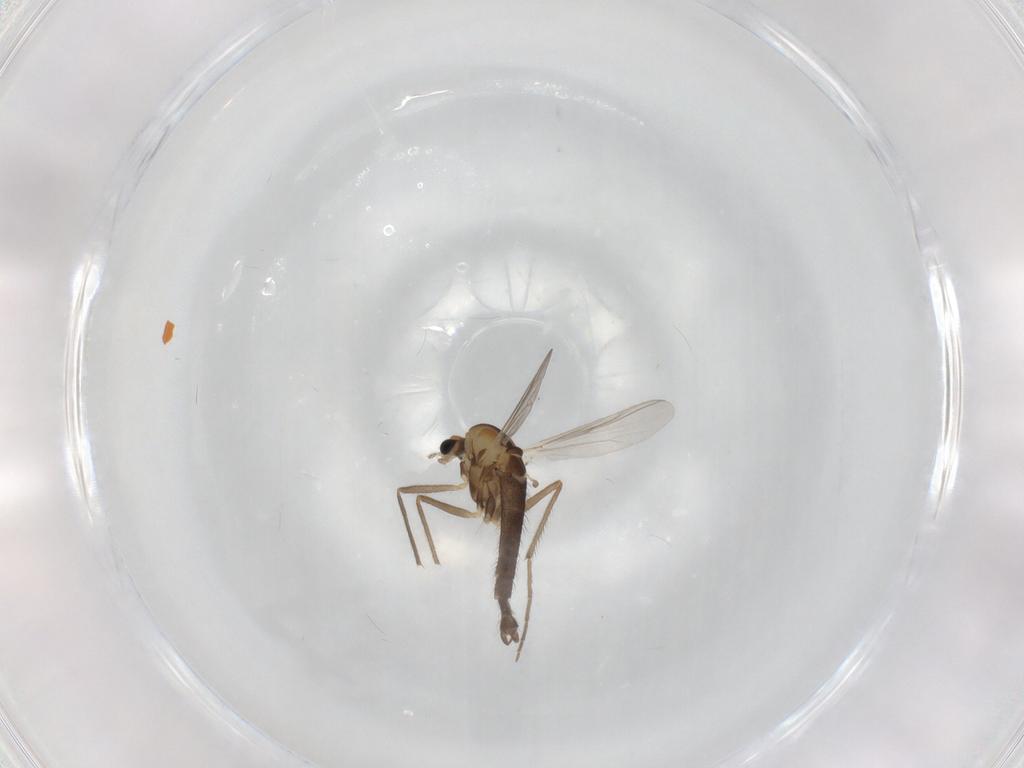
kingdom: Animalia
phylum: Arthropoda
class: Insecta
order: Diptera
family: Chironomidae
